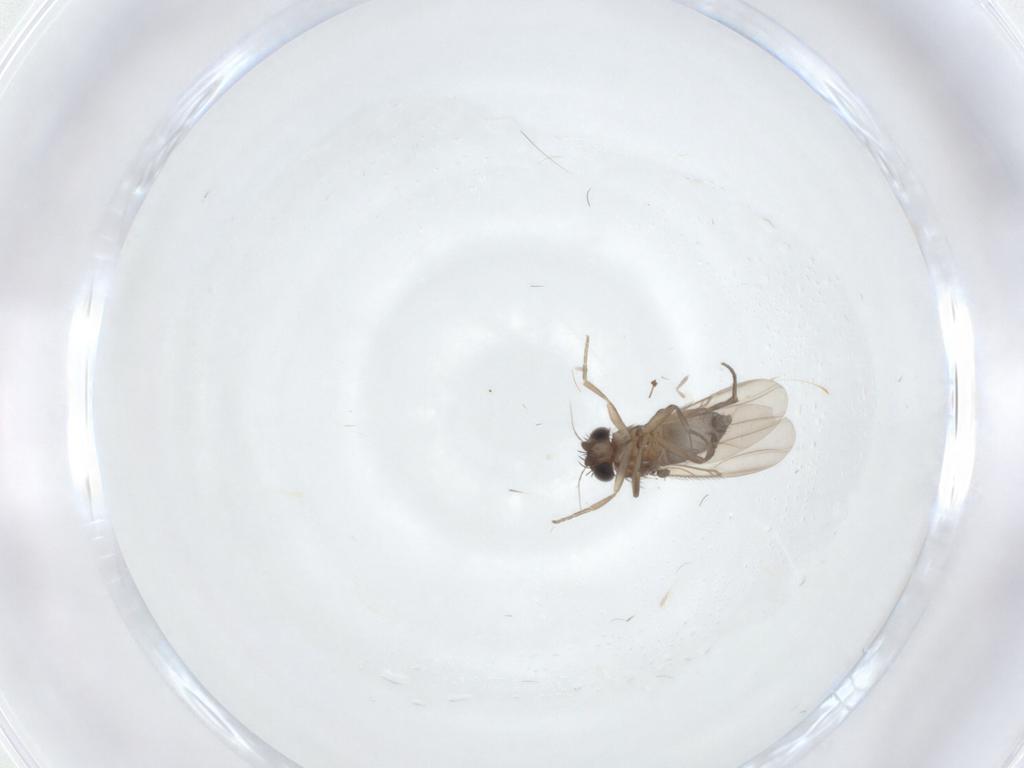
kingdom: Animalia
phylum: Arthropoda
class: Insecta
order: Diptera
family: Phoridae
